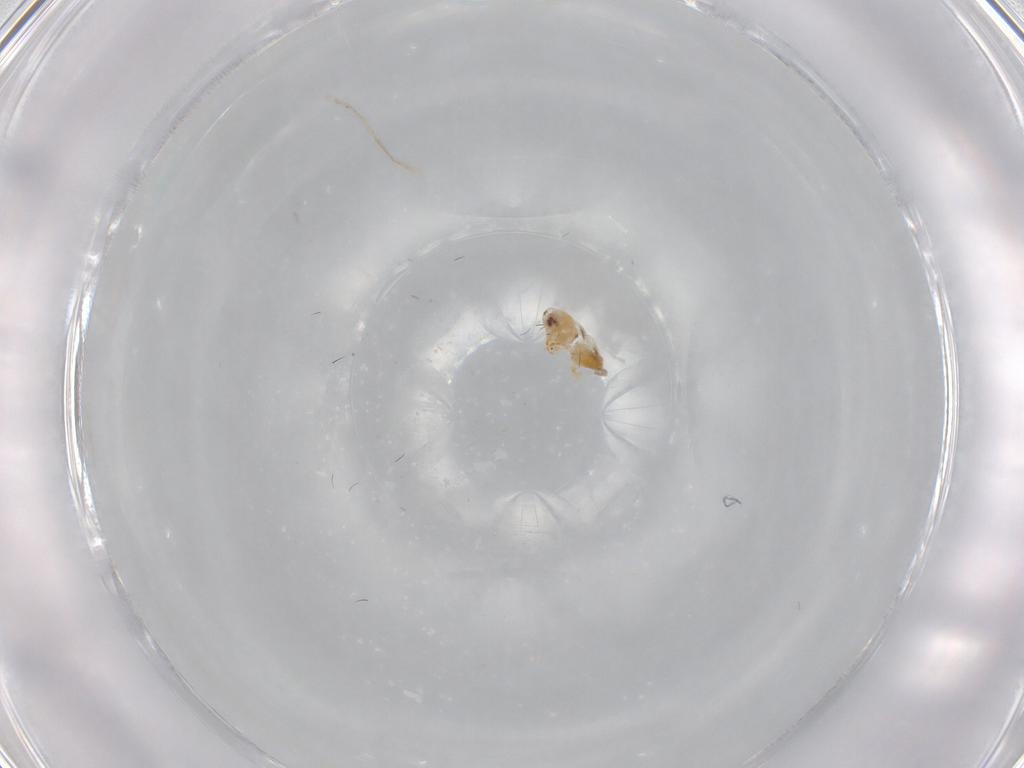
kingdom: Animalia
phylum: Arthropoda
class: Insecta
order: Hemiptera
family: Aleyrodidae
